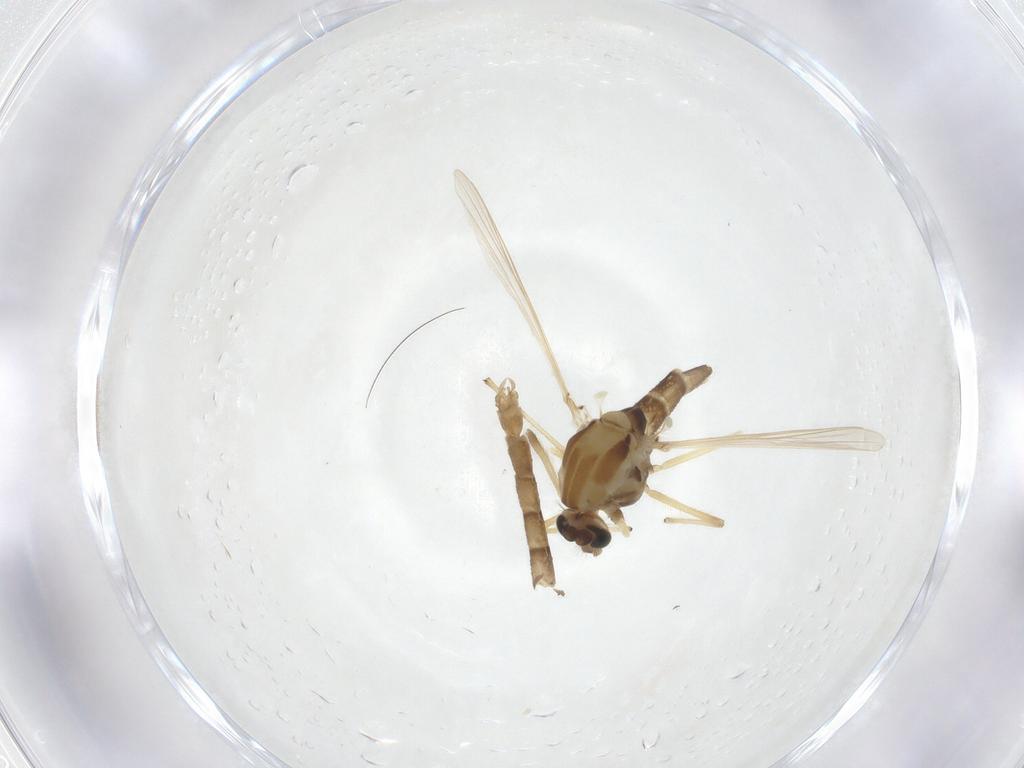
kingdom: Animalia
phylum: Arthropoda
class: Insecta
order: Diptera
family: Chironomidae
